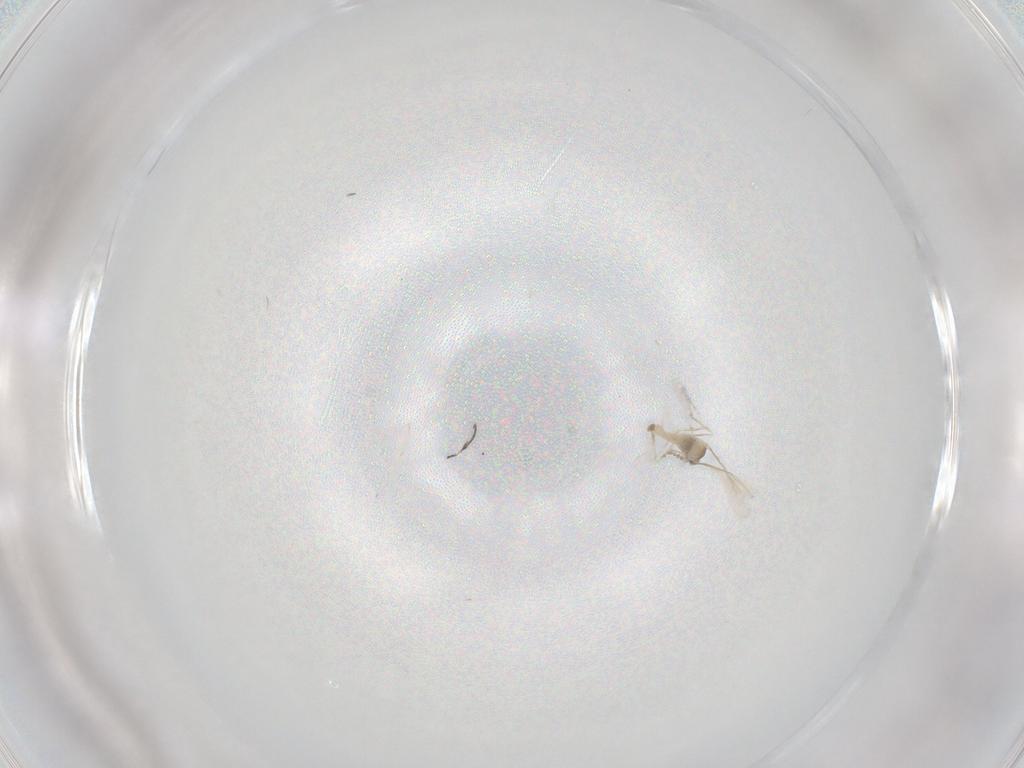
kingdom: Animalia
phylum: Arthropoda
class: Insecta
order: Diptera
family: Cecidomyiidae
